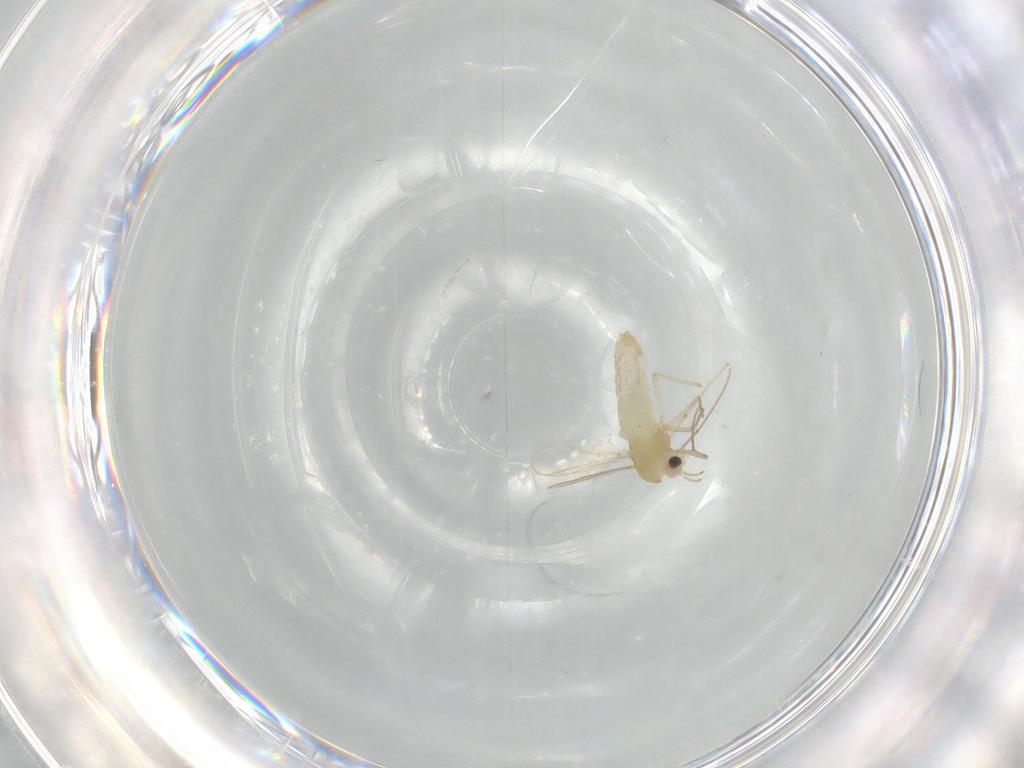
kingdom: Animalia
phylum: Arthropoda
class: Insecta
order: Diptera
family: Chironomidae
